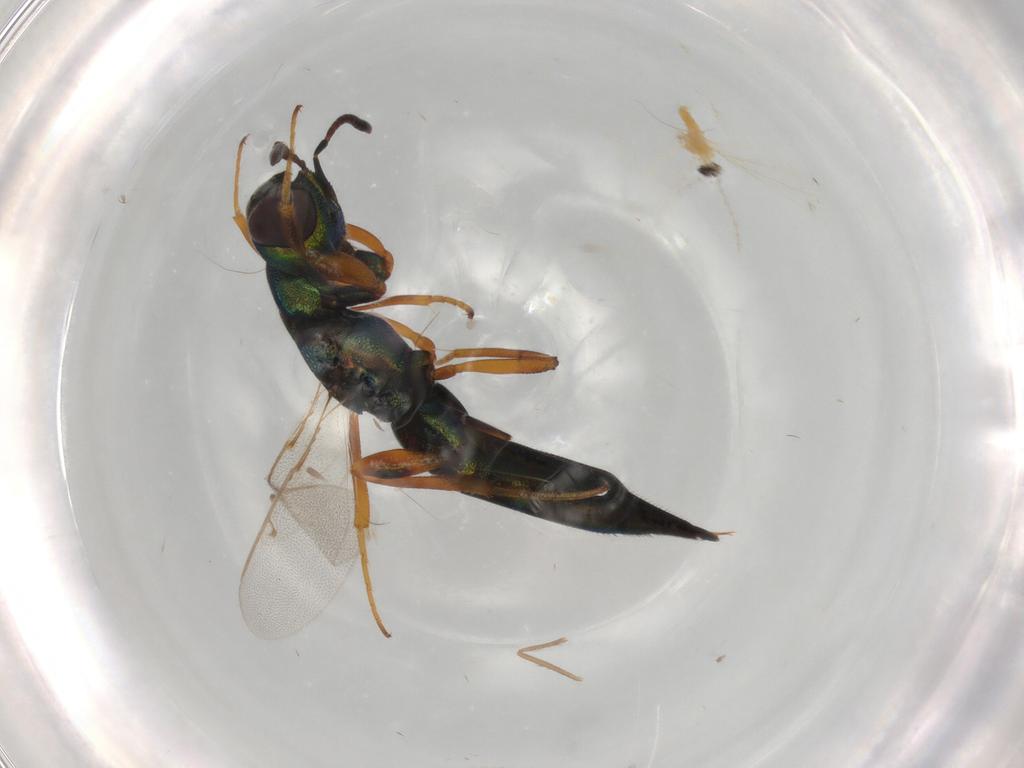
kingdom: Animalia
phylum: Arthropoda
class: Insecta
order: Hymenoptera
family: Lyciscidae
